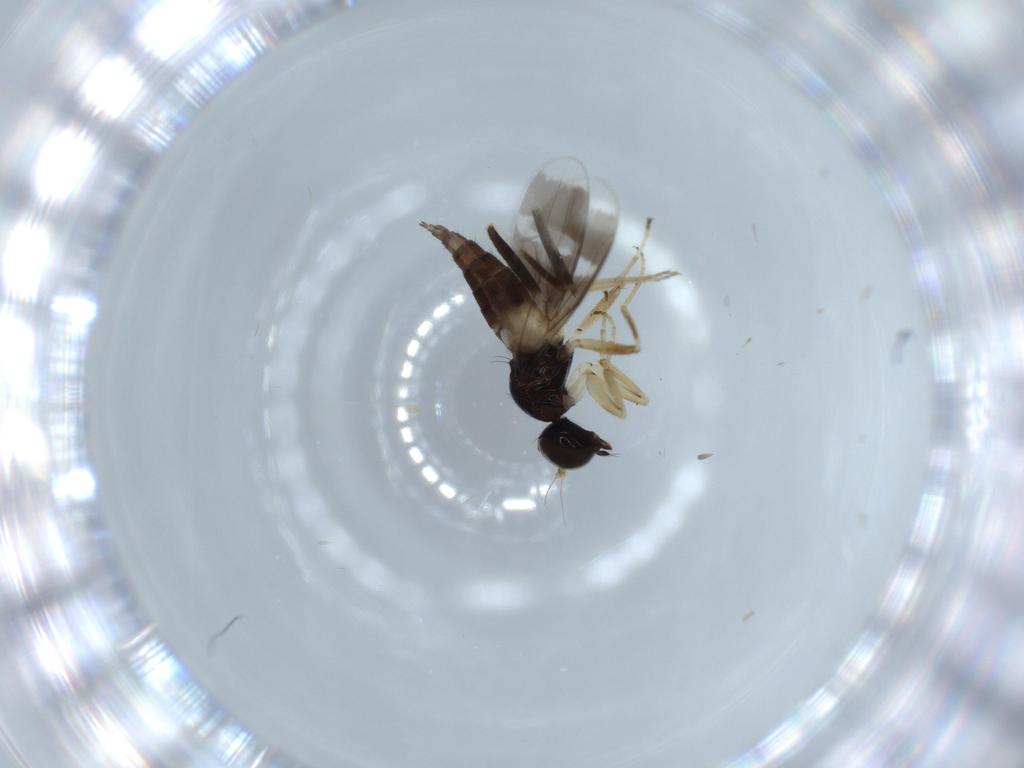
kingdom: Animalia
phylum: Arthropoda
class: Insecta
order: Diptera
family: Hybotidae
